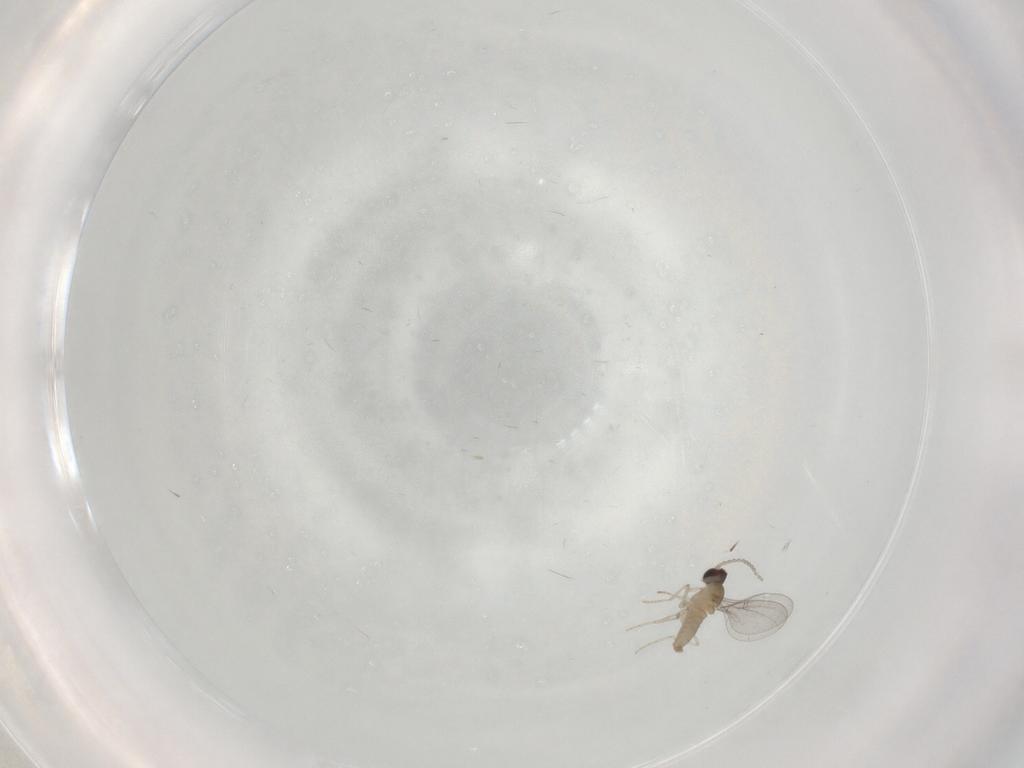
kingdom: Animalia
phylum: Arthropoda
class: Insecta
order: Diptera
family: Cecidomyiidae
